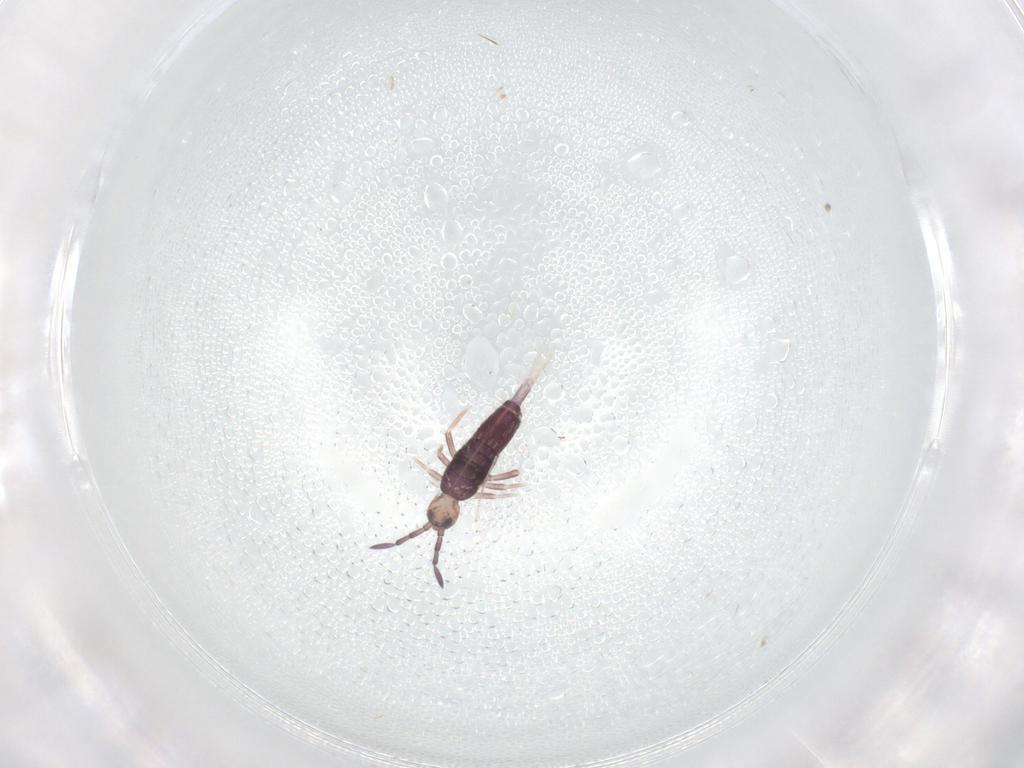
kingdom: Animalia
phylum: Arthropoda
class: Collembola
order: Entomobryomorpha
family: Entomobryidae
